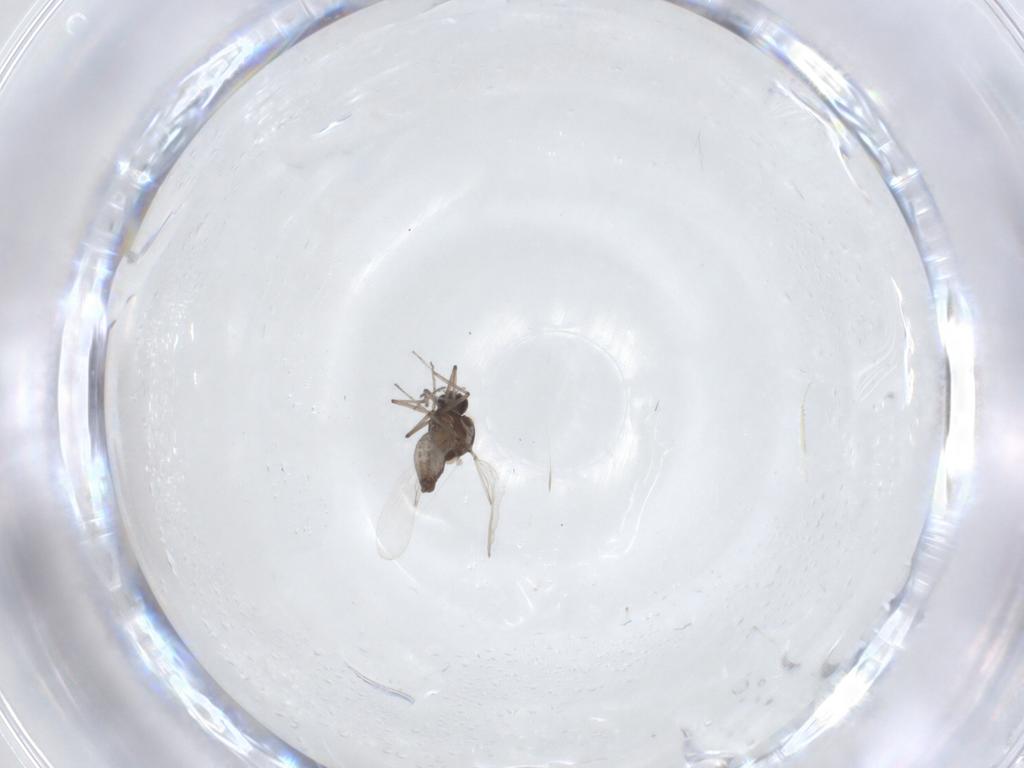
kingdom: Animalia
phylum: Arthropoda
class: Insecta
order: Diptera
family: Ceratopogonidae
